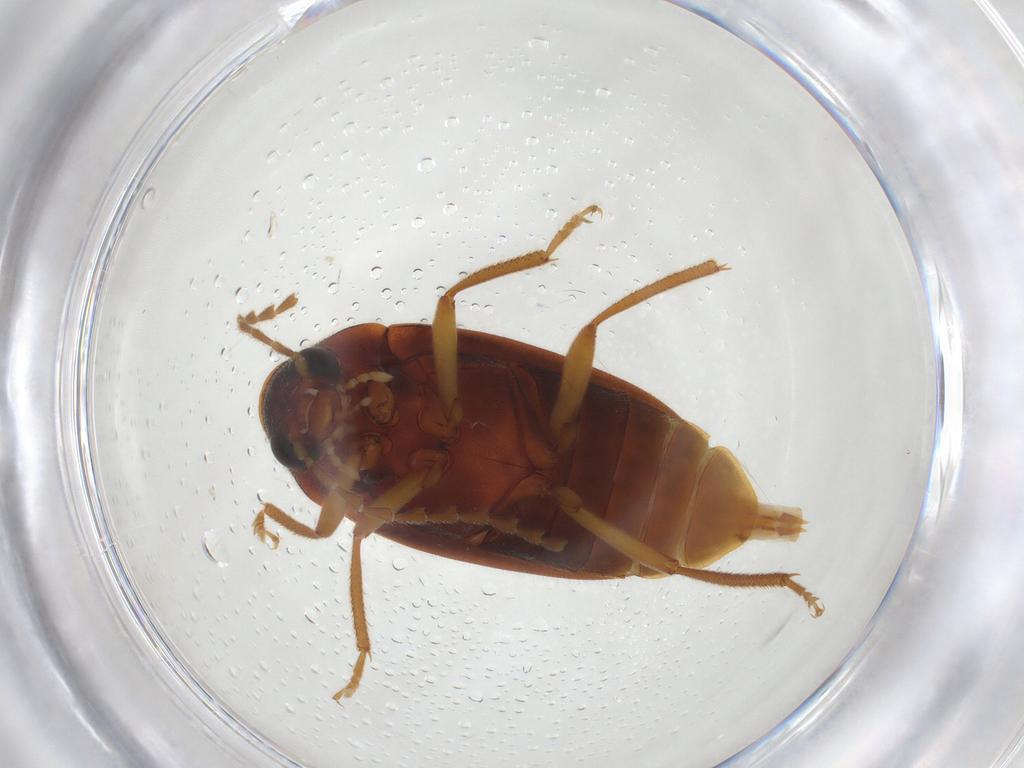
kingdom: Animalia
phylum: Arthropoda
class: Insecta
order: Coleoptera
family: Ptilodactylidae
